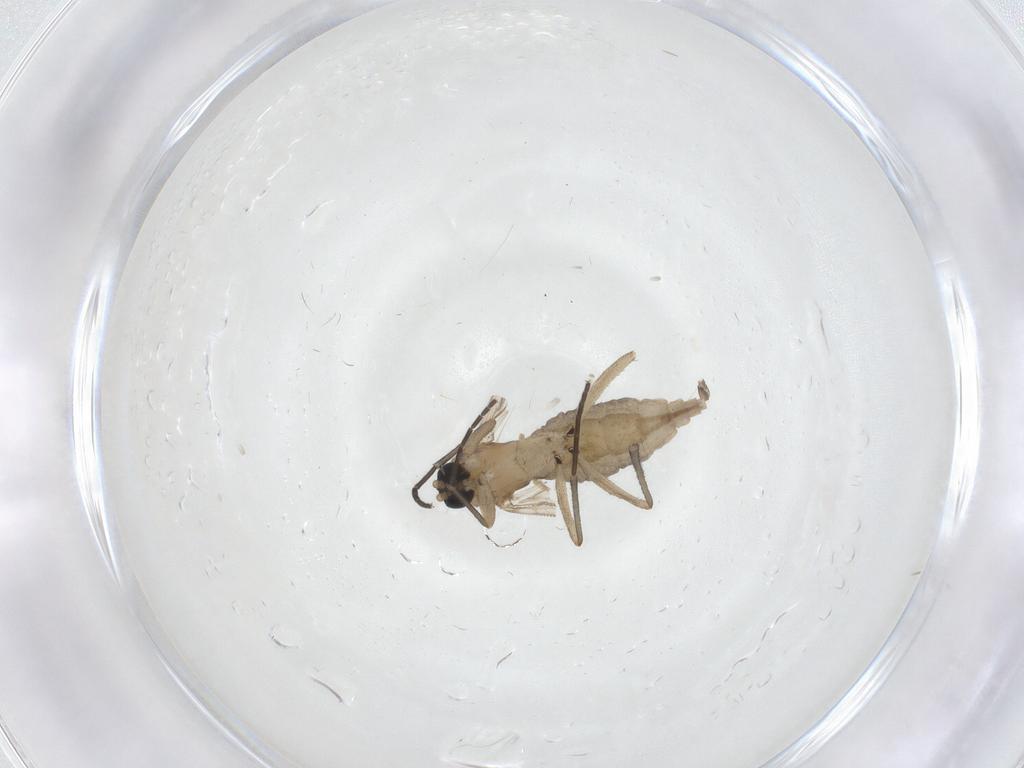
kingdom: Animalia
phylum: Arthropoda
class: Insecta
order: Diptera
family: Sciaridae
